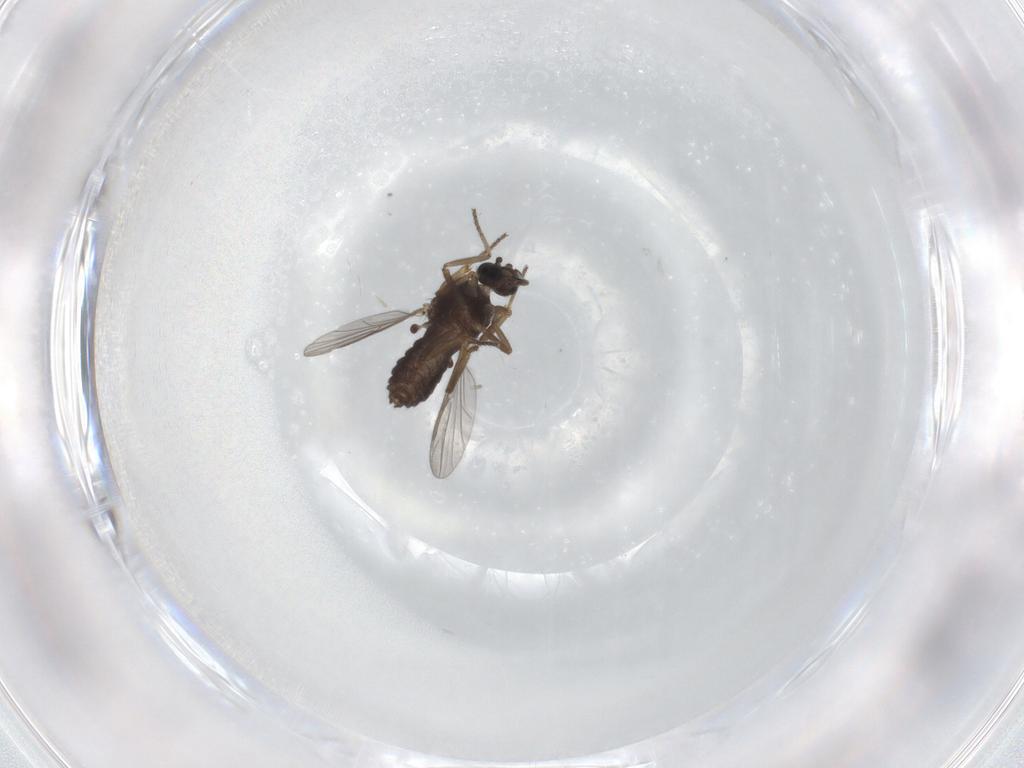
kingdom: Animalia
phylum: Arthropoda
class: Insecta
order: Diptera
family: Ceratopogonidae
